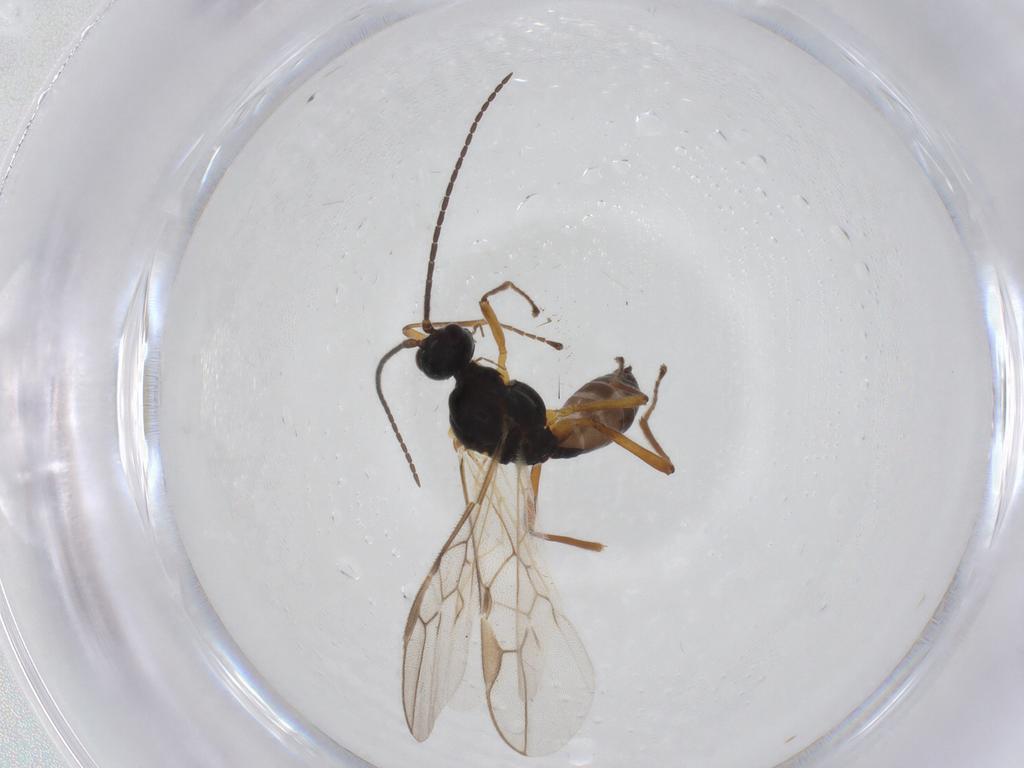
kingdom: Animalia
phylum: Arthropoda
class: Insecta
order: Hymenoptera
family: Braconidae
